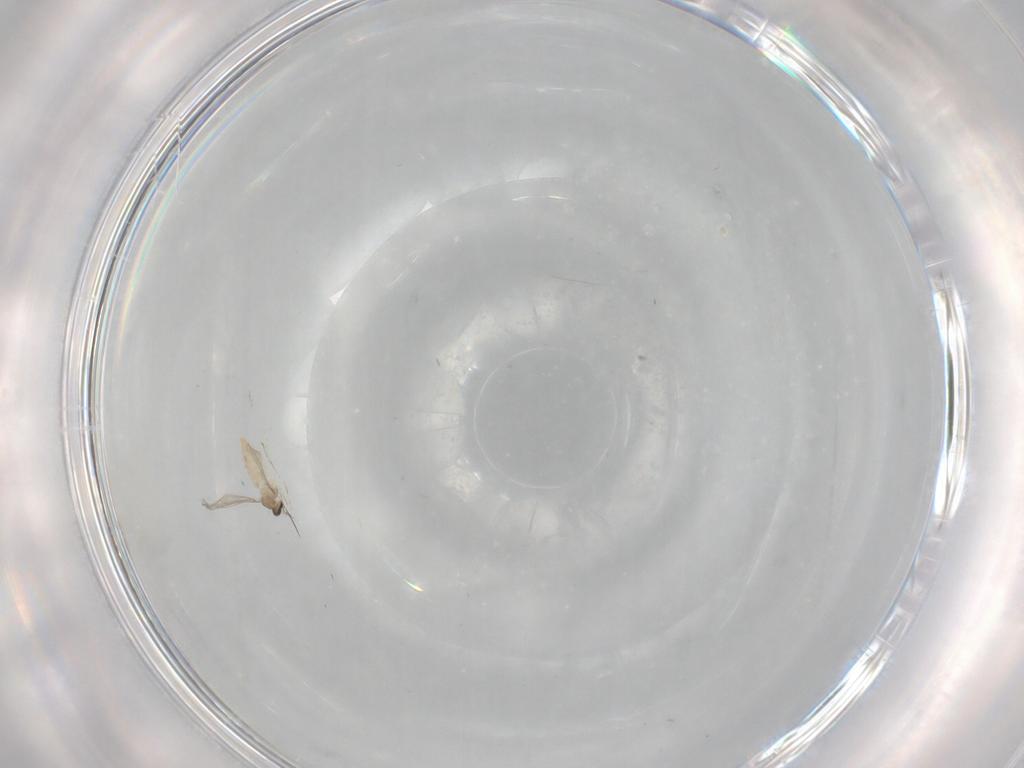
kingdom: Animalia
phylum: Arthropoda
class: Insecta
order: Diptera
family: Cecidomyiidae
